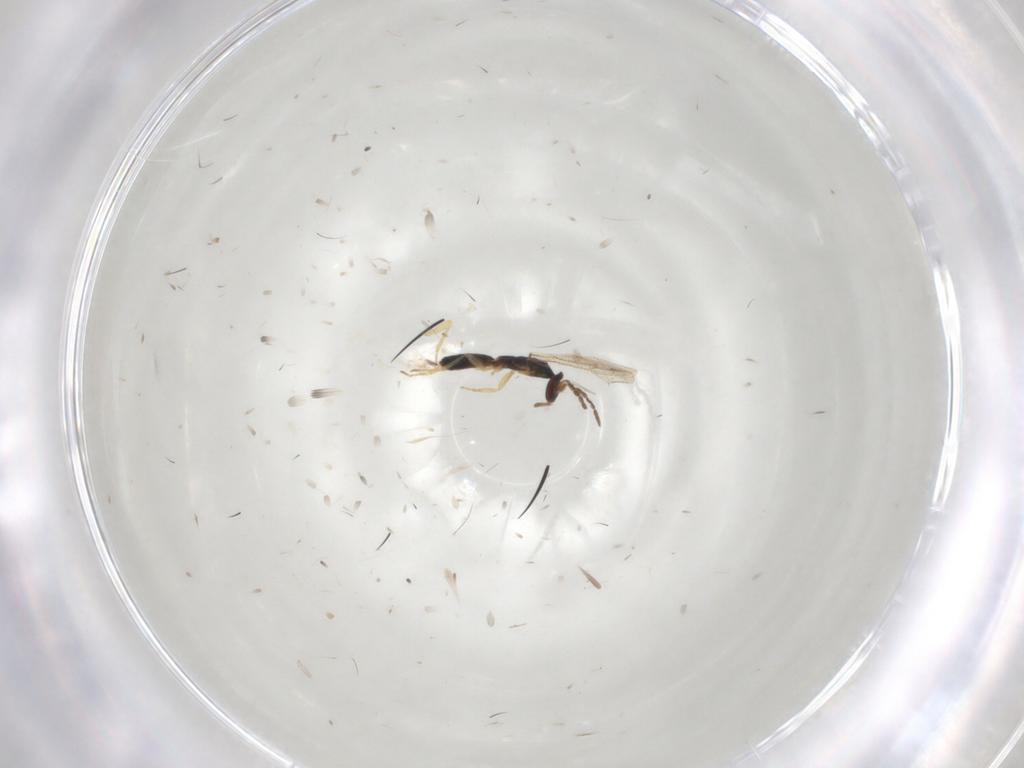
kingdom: Animalia
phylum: Arthropoda
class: Insecta
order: Hymenoptera
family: Eulophidae
